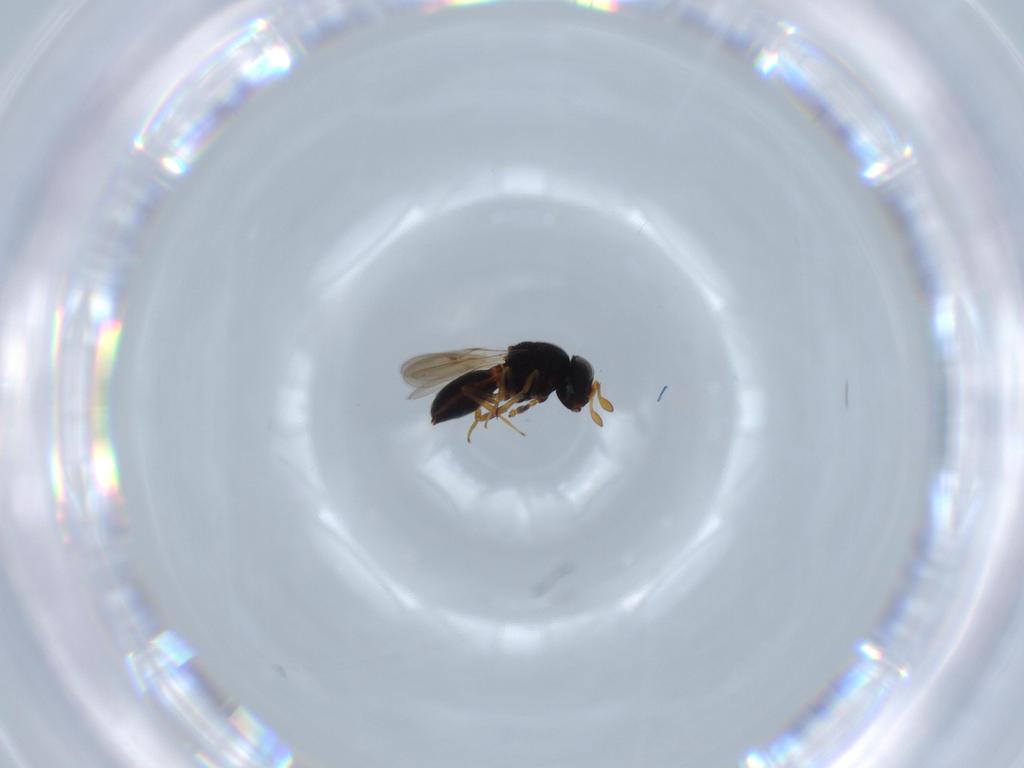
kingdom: Animalia
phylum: Arthropoda
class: Insecta
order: Hymenoptera
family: Scelionidae
